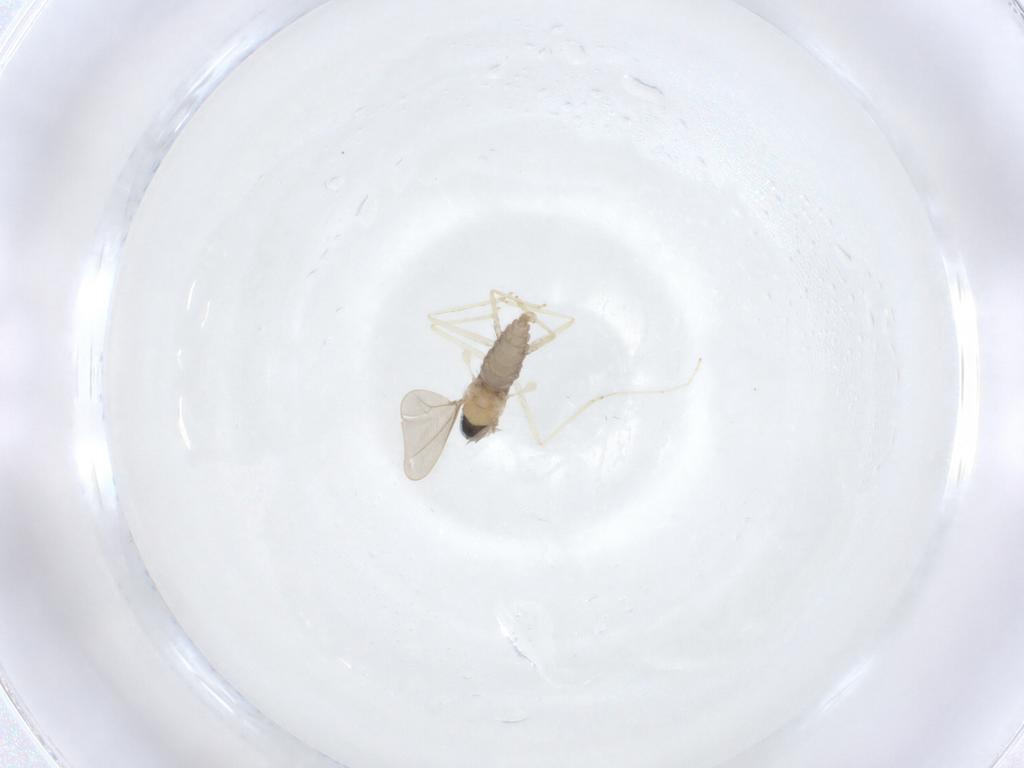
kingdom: Animalia
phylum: Arthropoda
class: Insecta
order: Diptera
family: Cecidomyiidae
